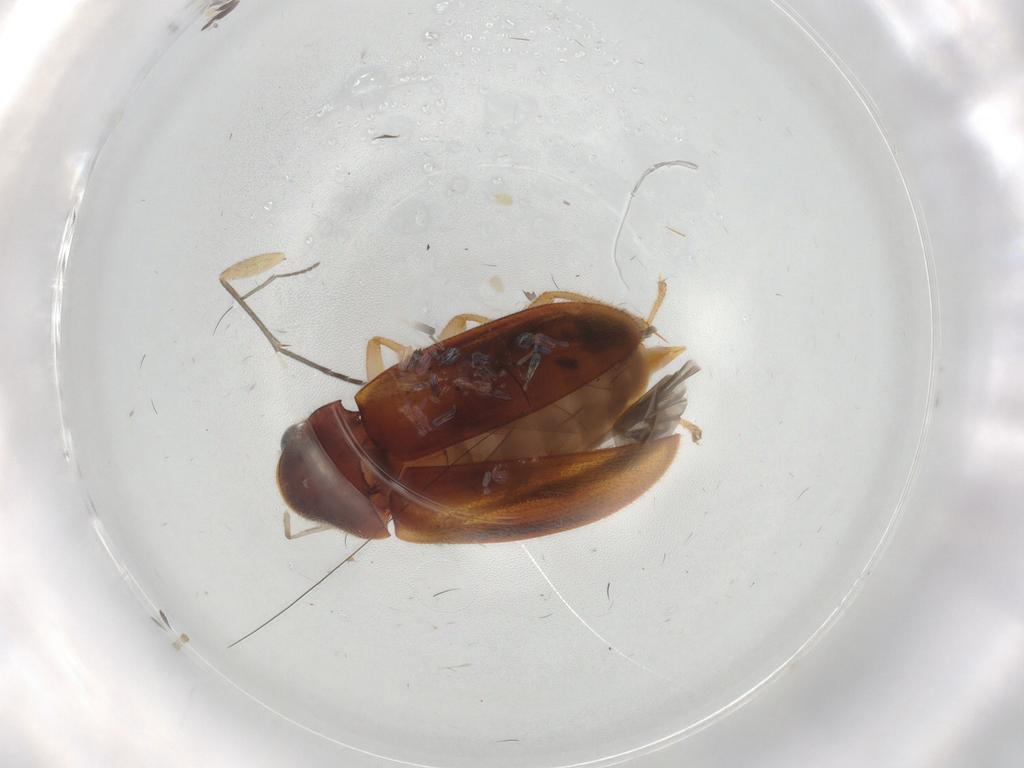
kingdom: Animalia
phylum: Arthropoda
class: Insecta
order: Coleoptera
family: Ptilodactylidae
